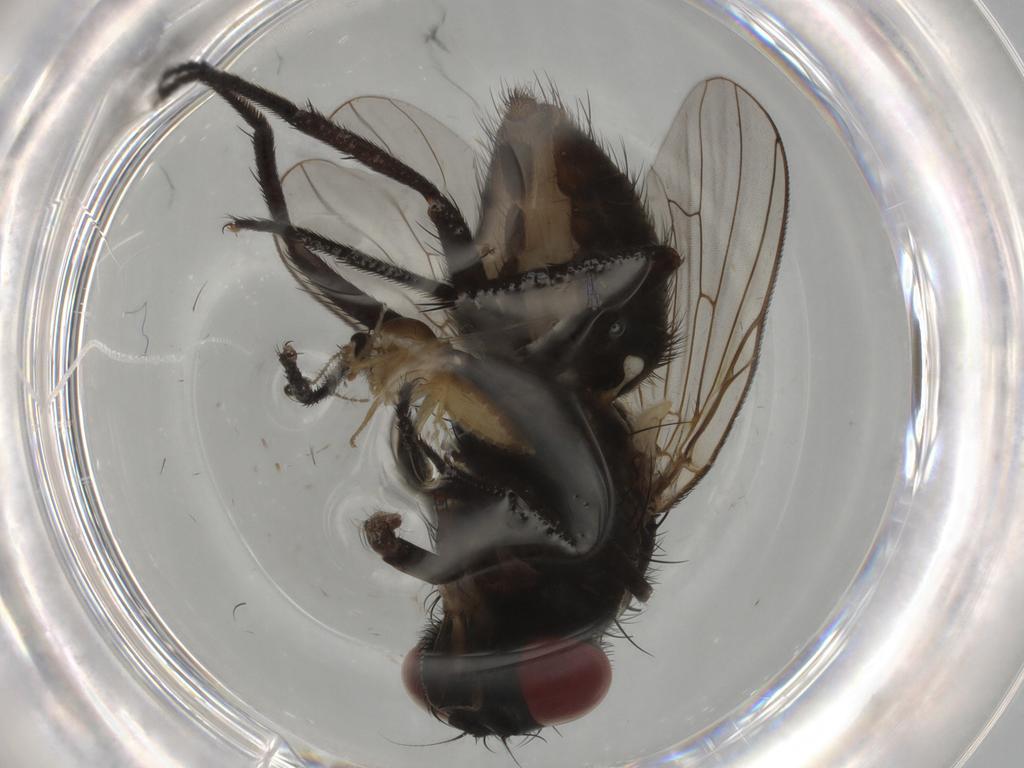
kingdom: Animalia
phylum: Arthropoda
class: Insecta
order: Diptera
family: Muscidae
